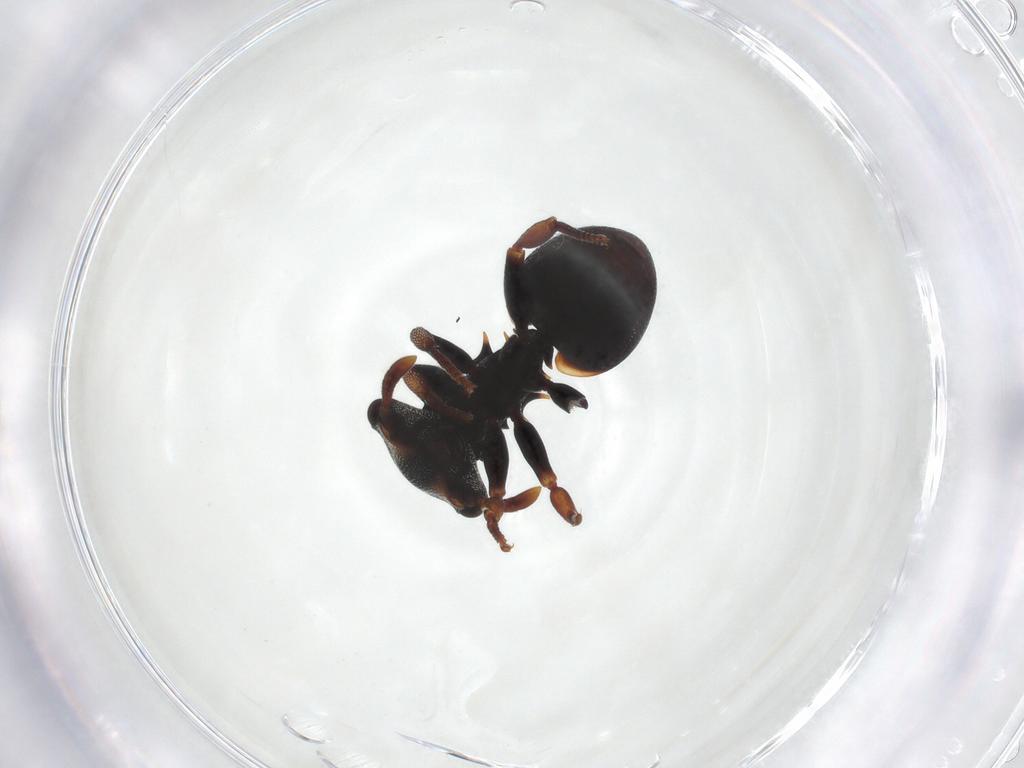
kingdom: Animalia
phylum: Arthropoda
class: Insecta
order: Hymenoptera
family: Formicidae
